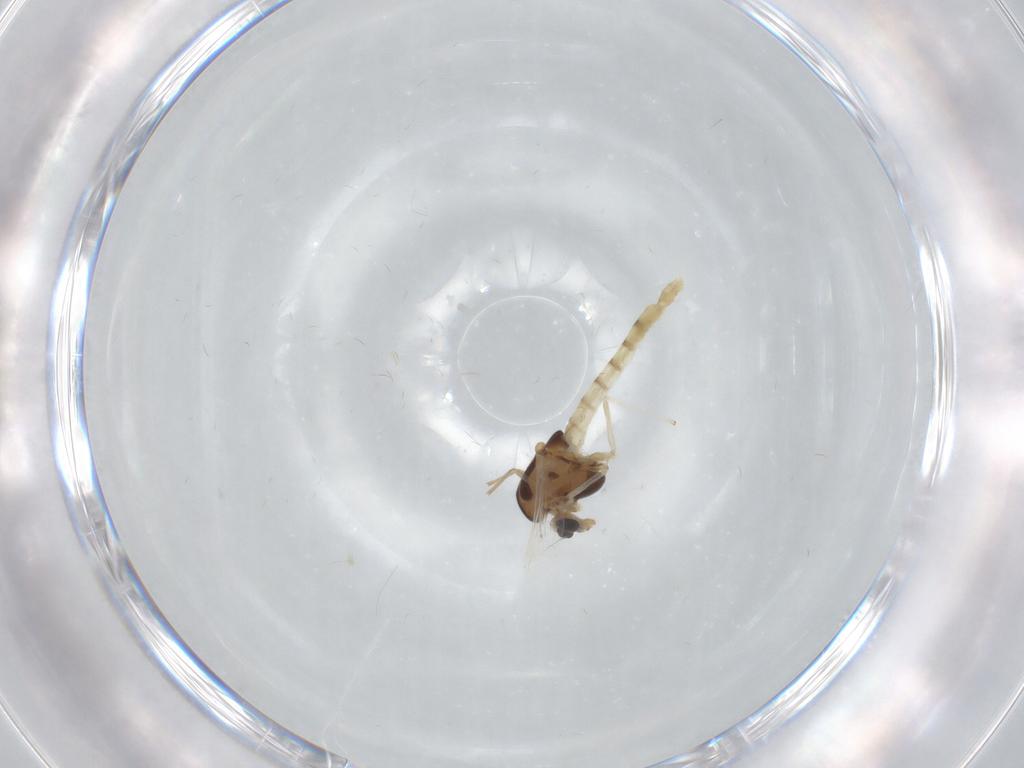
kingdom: Animalia
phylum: Arthropoda
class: Insecta
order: Diptera
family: Chironomidae
